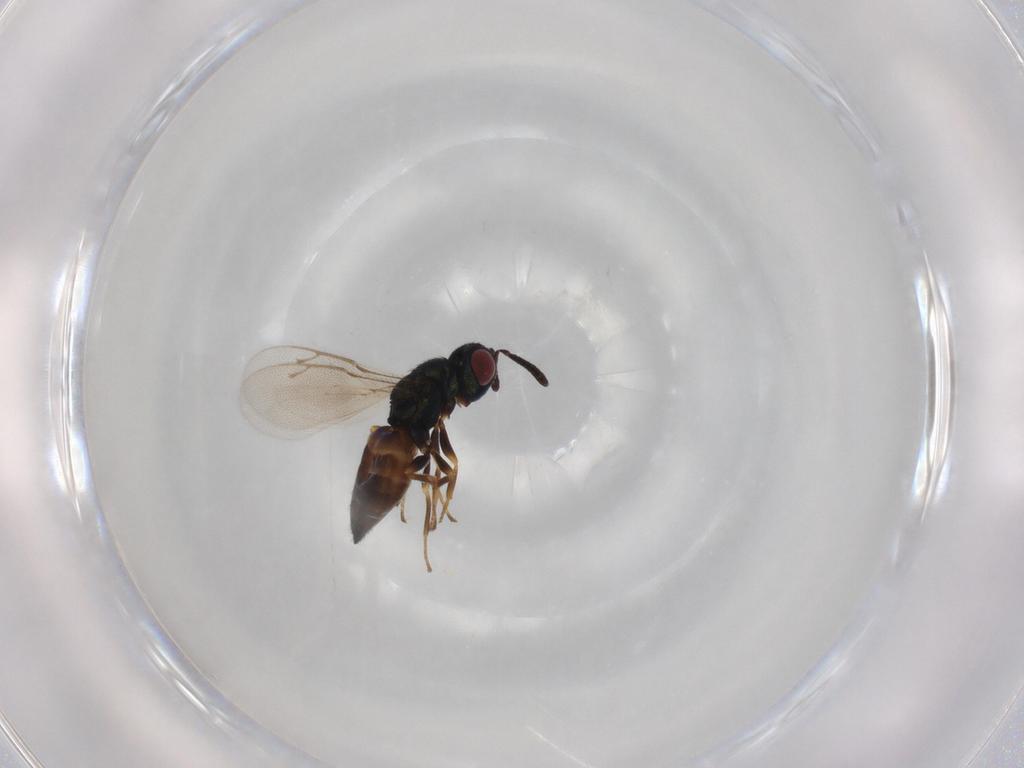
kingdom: Animalia
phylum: Arthropoda
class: Insecta
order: Hymenoptera
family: Pteromalidae
